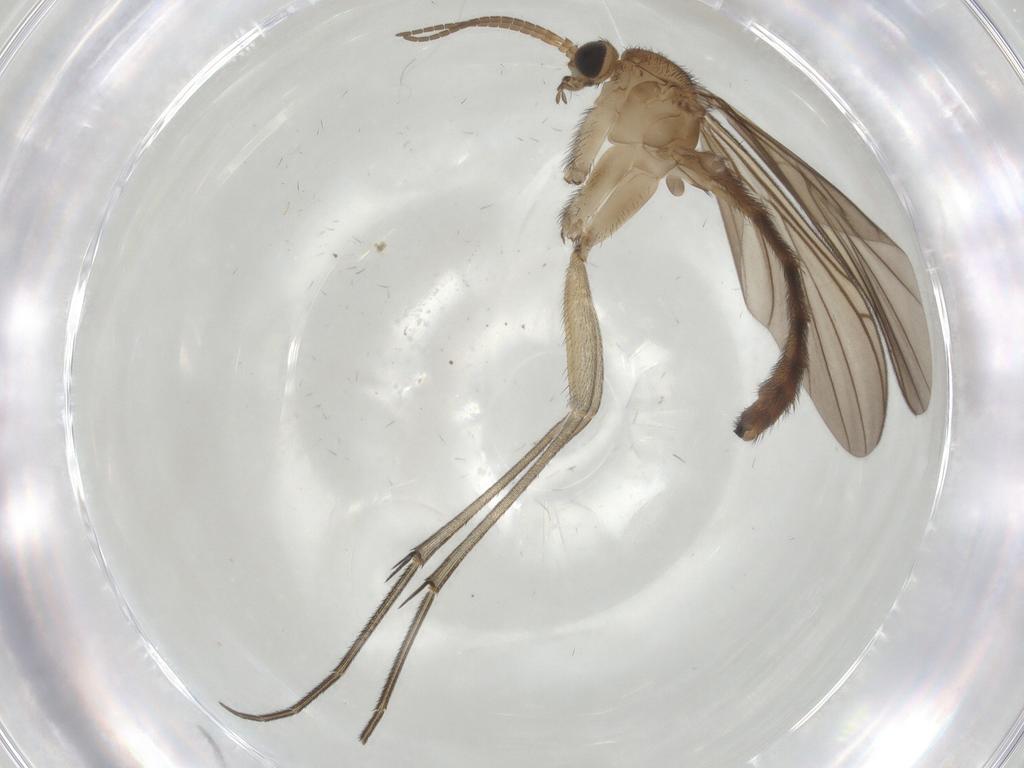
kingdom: Animalia
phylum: Arthropoda
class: Insecta
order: Diptera
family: Keroplatidae
